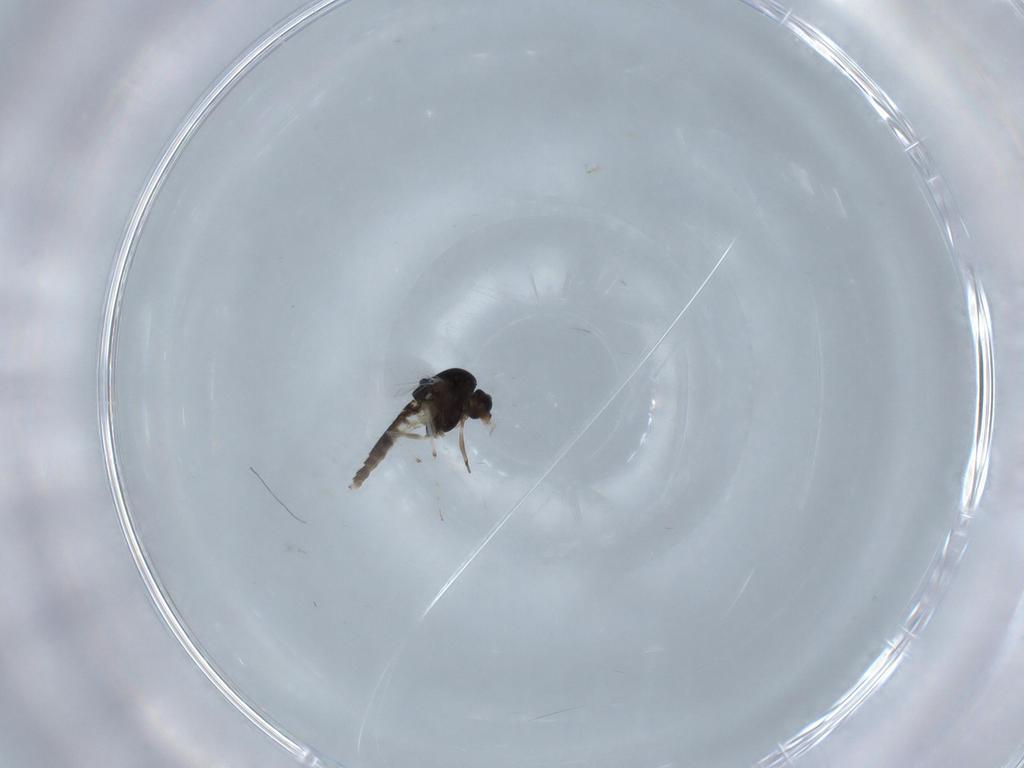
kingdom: Animalia
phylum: Arthropoda
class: Insecta
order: Diptera
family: Chironomidae
